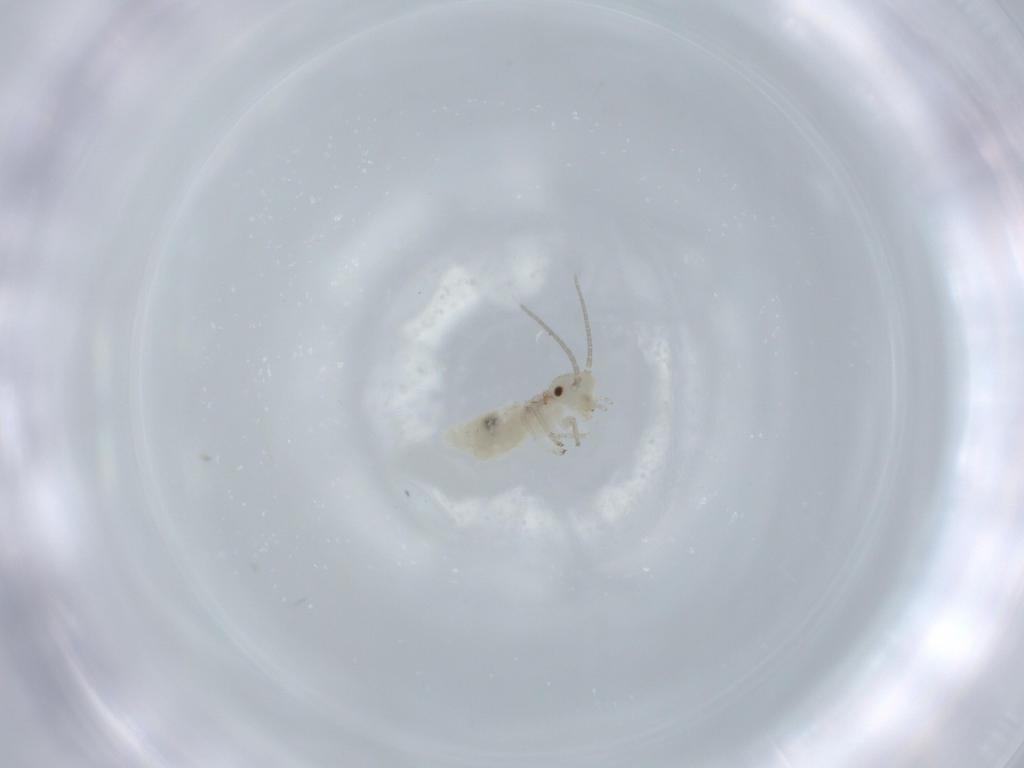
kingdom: Animalia
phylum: Arthropoda
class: Insecta
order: Psocodea
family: Caeciliusidae
